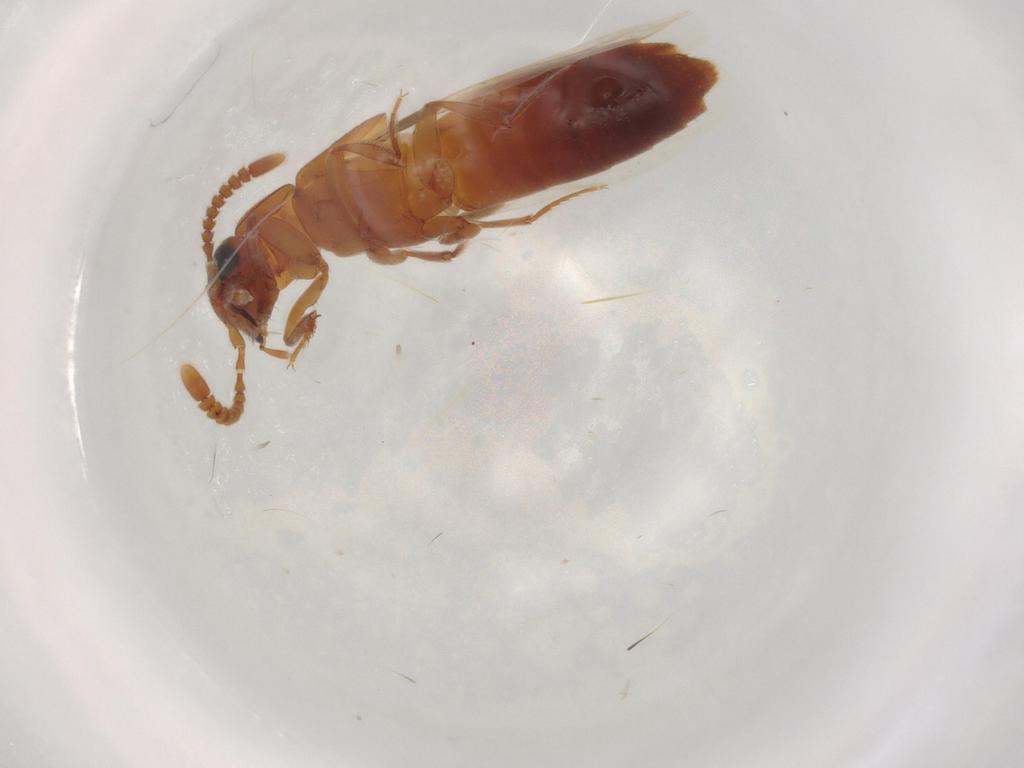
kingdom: Animalia
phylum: Arthropoda
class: Insecta
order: Coleoptera
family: Staphylinidae
